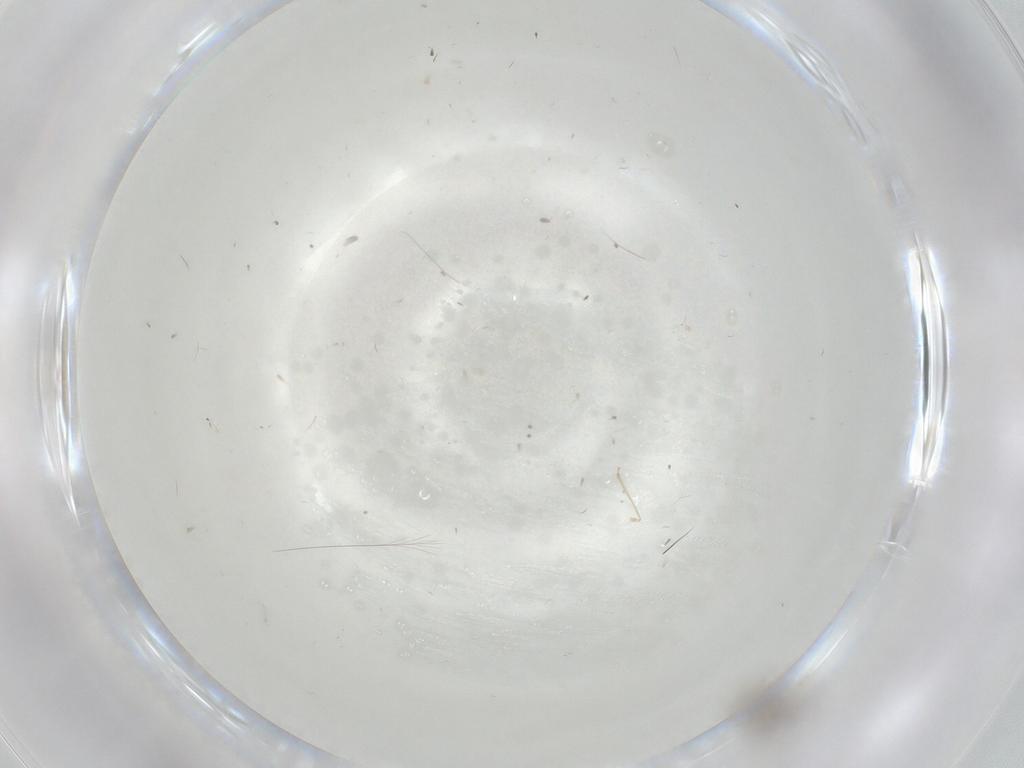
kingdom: Animalia
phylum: Arthropoda
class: Insecta
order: Diptera
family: Cecidomyiidae
